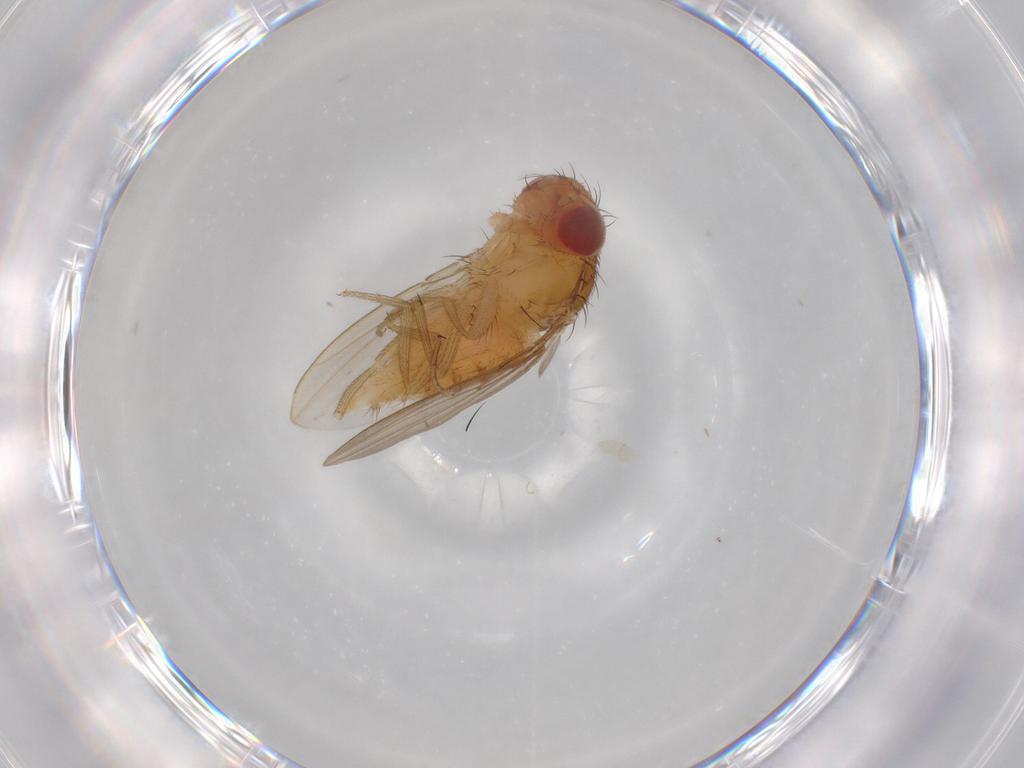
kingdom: Animalia
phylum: Arthropoda
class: Insecta
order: Diptera
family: Drosophilidae
